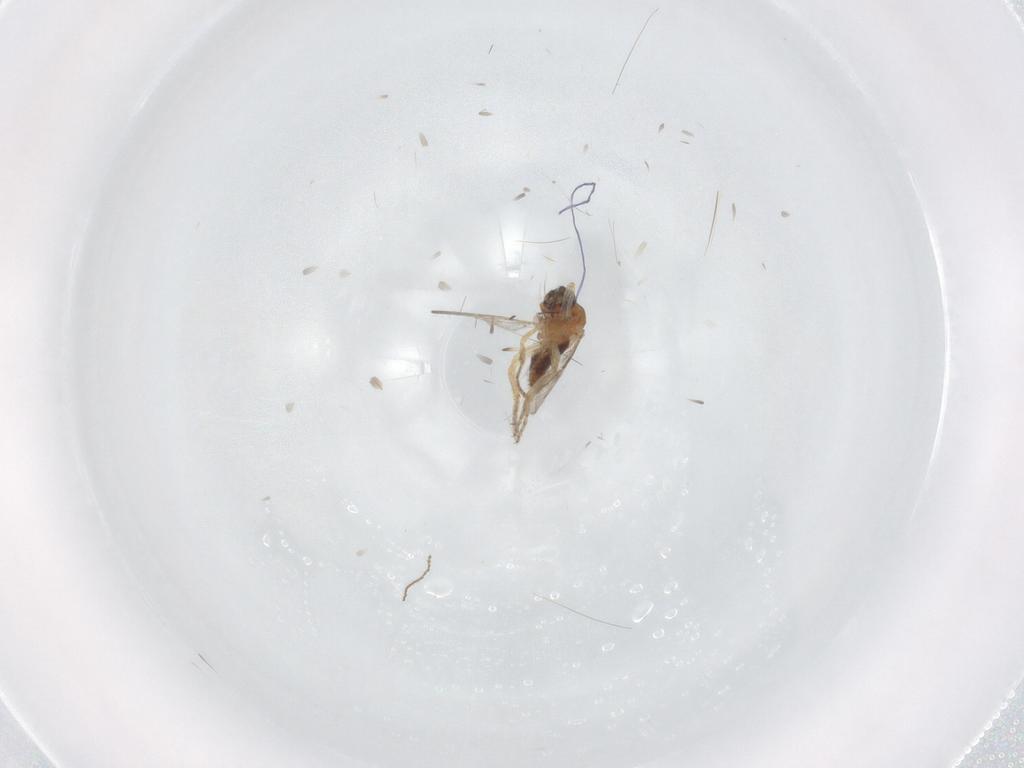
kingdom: Animalia
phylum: Arthropoda
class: Insecta
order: Diptera
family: Ceratopogonidae
